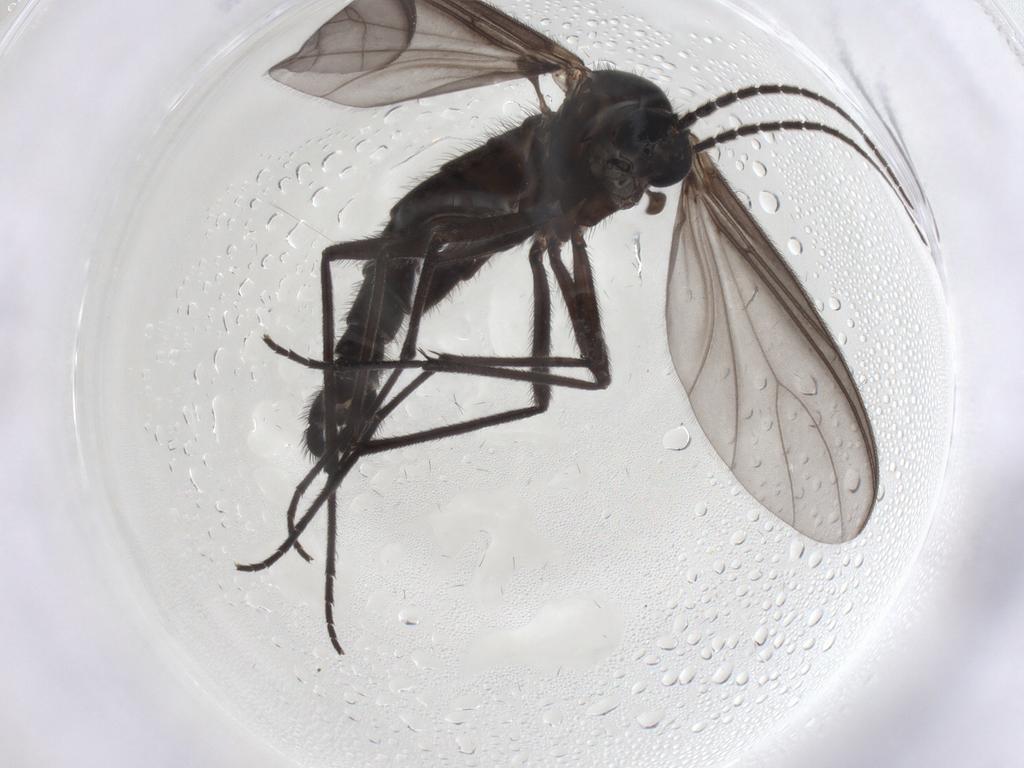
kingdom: Animalia
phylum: Arthropoda
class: Insecta
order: Diptera
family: Sciaridae
